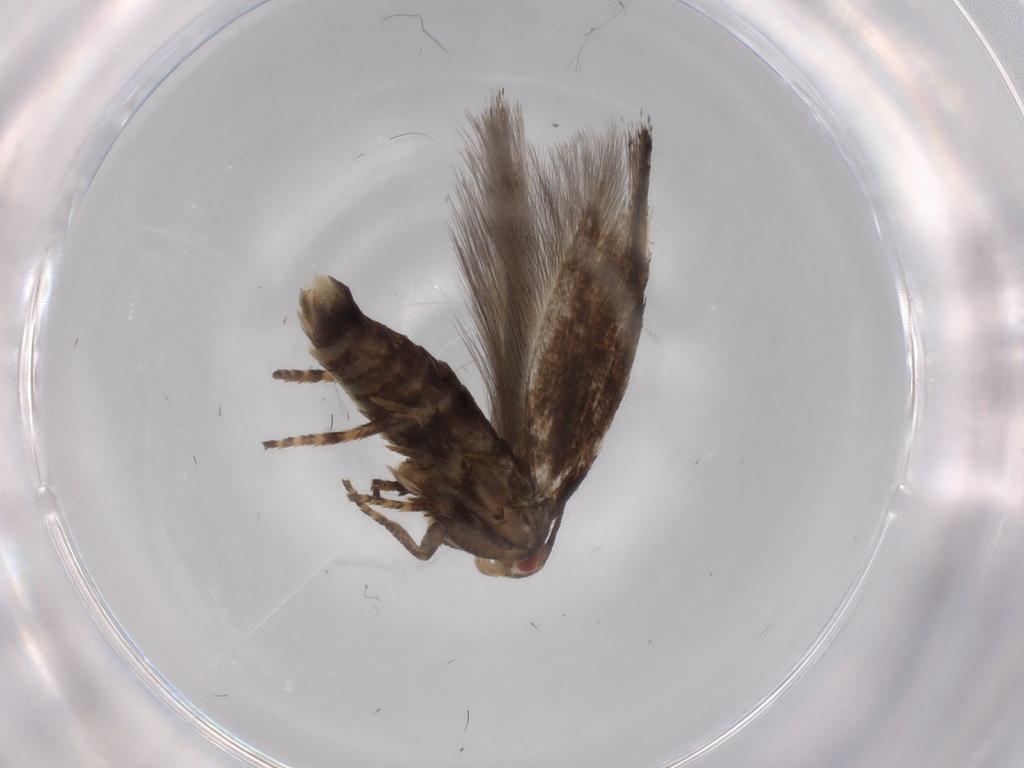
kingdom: Animalia
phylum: Arthropoda
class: Insecta
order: Lepidoptera
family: Momphidae
